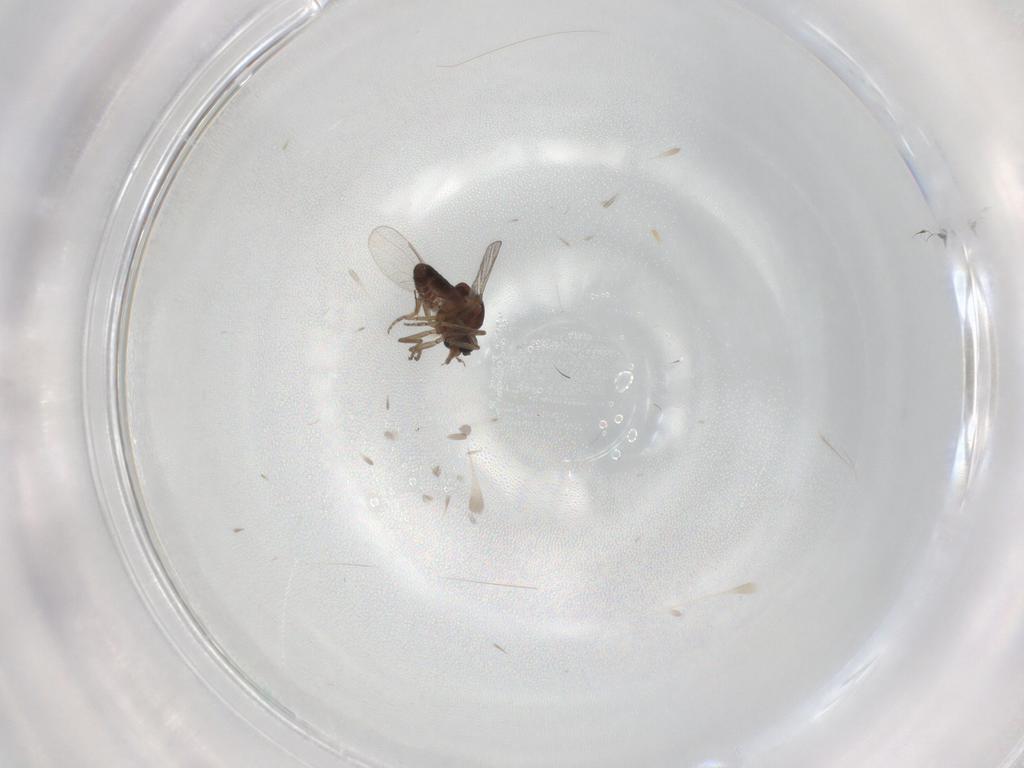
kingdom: Animalia
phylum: Arthropoda
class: Insecta
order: Diptera
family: Ceratopogonidae
